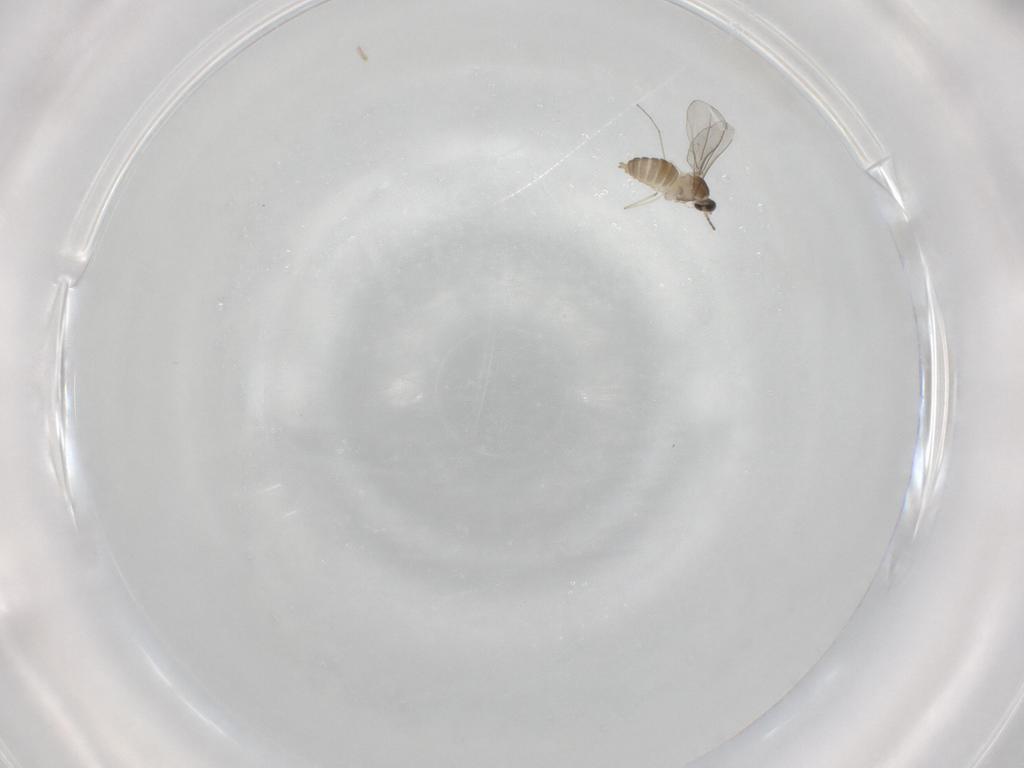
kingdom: Animalia
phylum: Arthropoda
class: Insecta
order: Diptera
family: Cecidomyiidae
